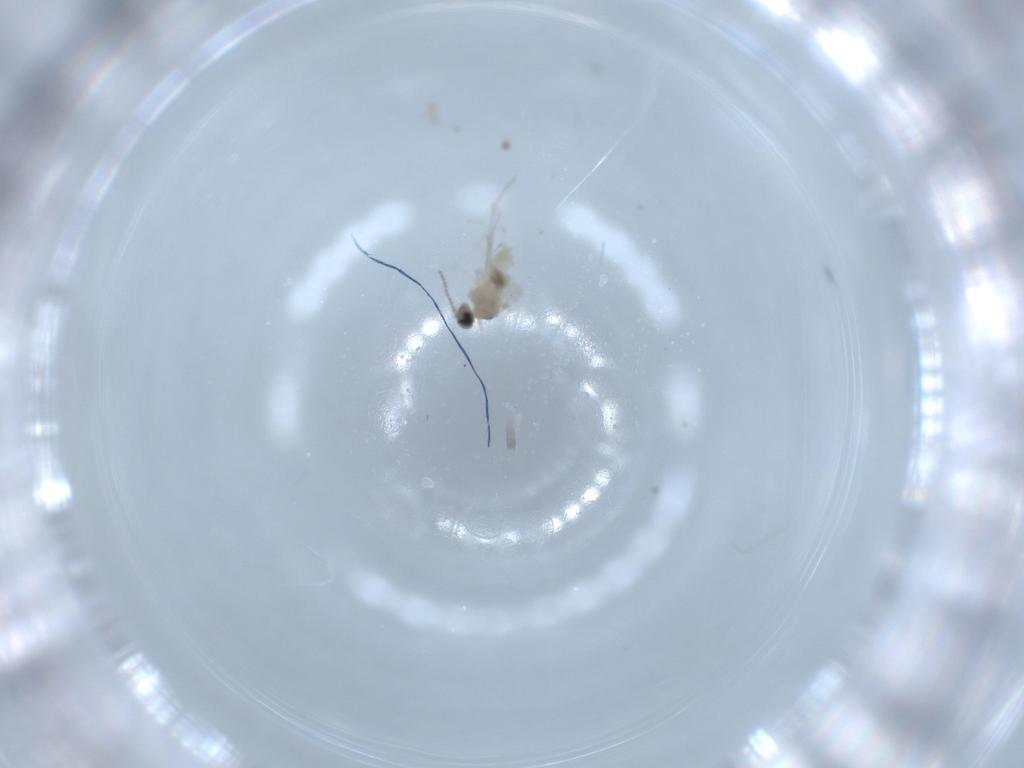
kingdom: Animalia
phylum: Arthropoda
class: Insecta
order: Diptera
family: Cecidomyiidae
